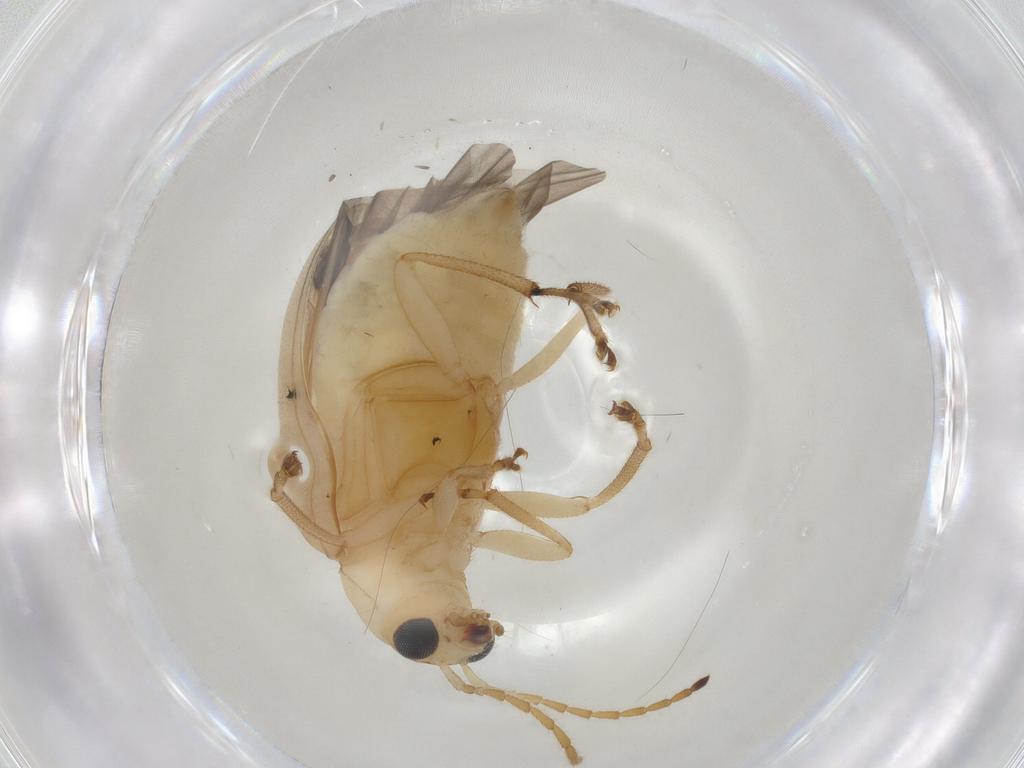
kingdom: Animalia
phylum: Arthropoda
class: Insecta
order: Coleoptera
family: Chrysomelidae
